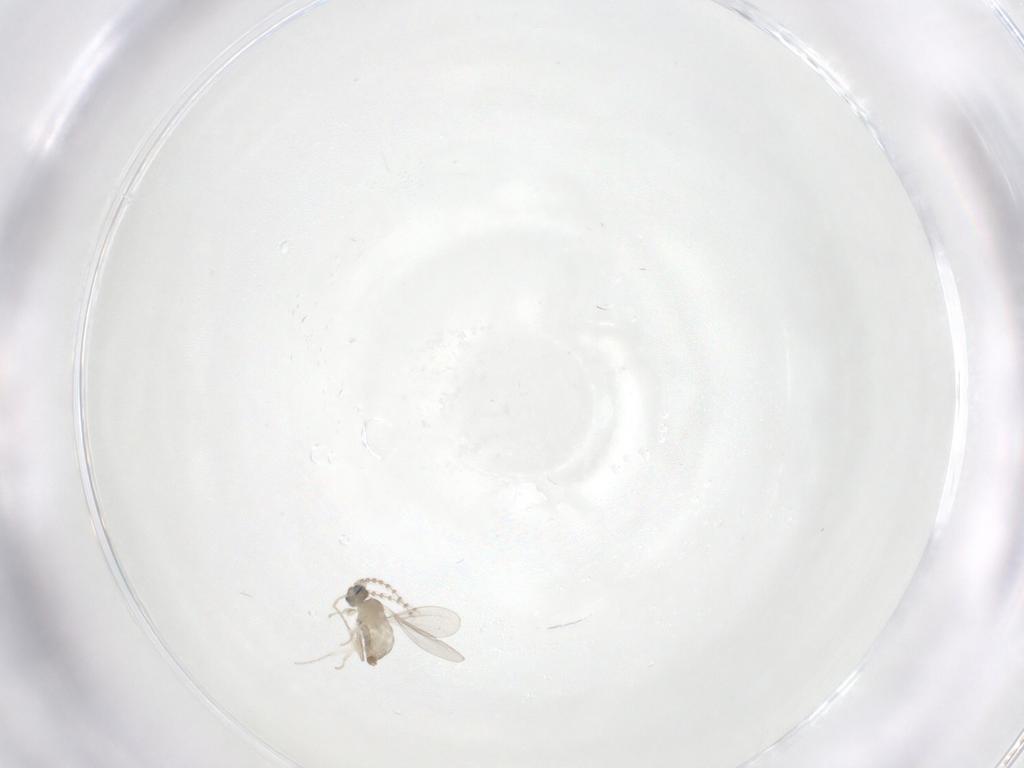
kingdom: Animalia
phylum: Arthropoda
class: Insecta
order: Diptera
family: Cecidomyiidae
